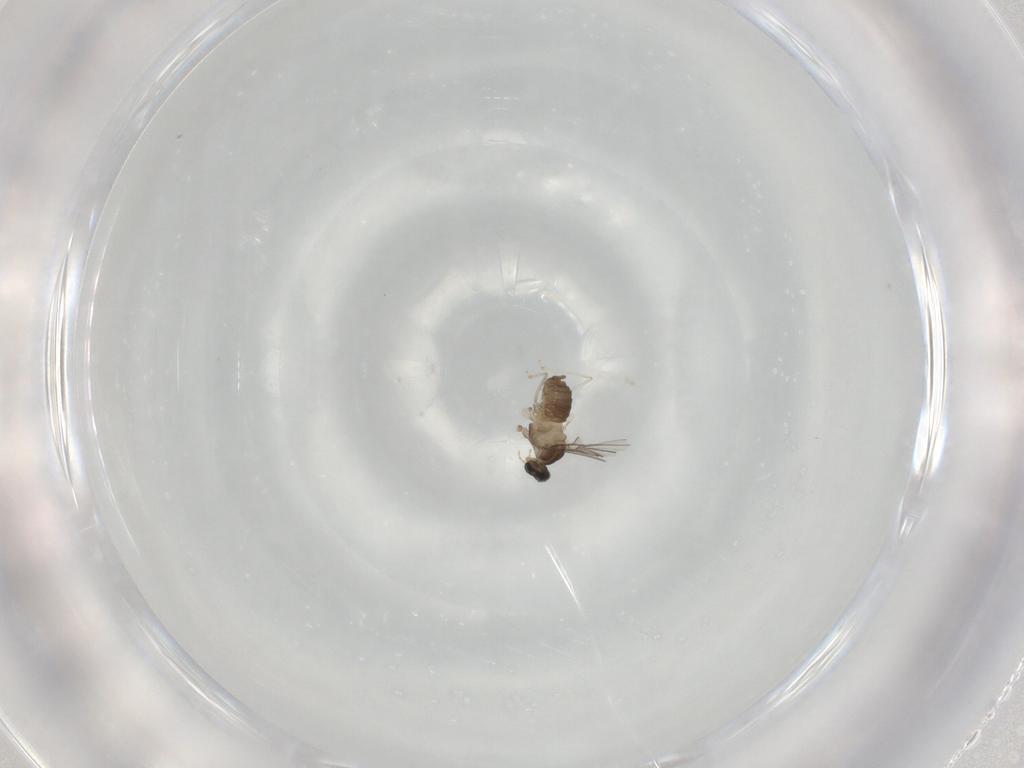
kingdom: Animalia
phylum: Arthropoda
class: Insecta
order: Diptera
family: Cecidomyiidae
